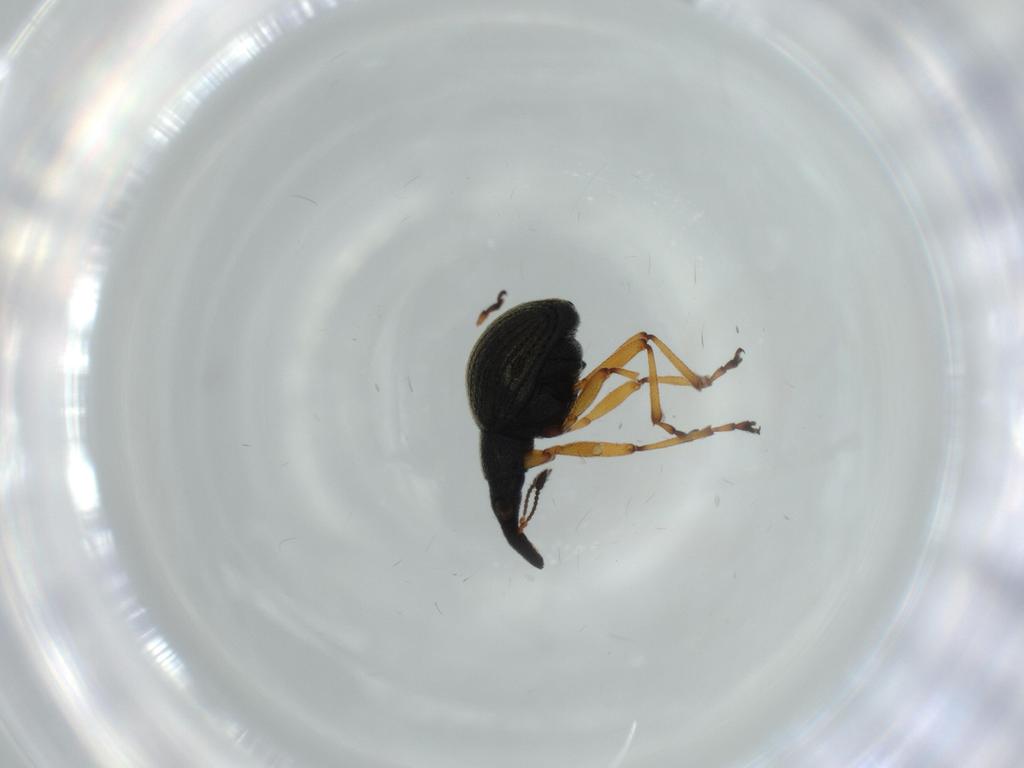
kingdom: Animalia
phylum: Arthropoda
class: Insecta
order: Coleoptera
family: Brentidae
